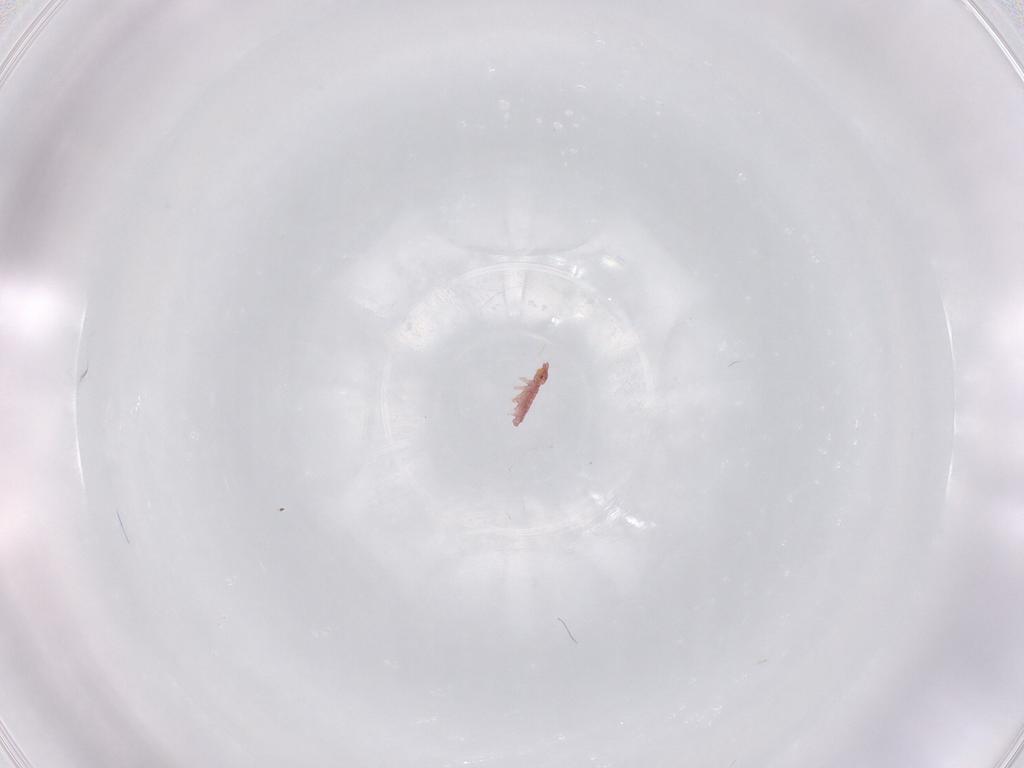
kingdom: Animalia
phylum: Arthropoda
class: Collembola
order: Poduromorpha
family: Hypogastruridae
